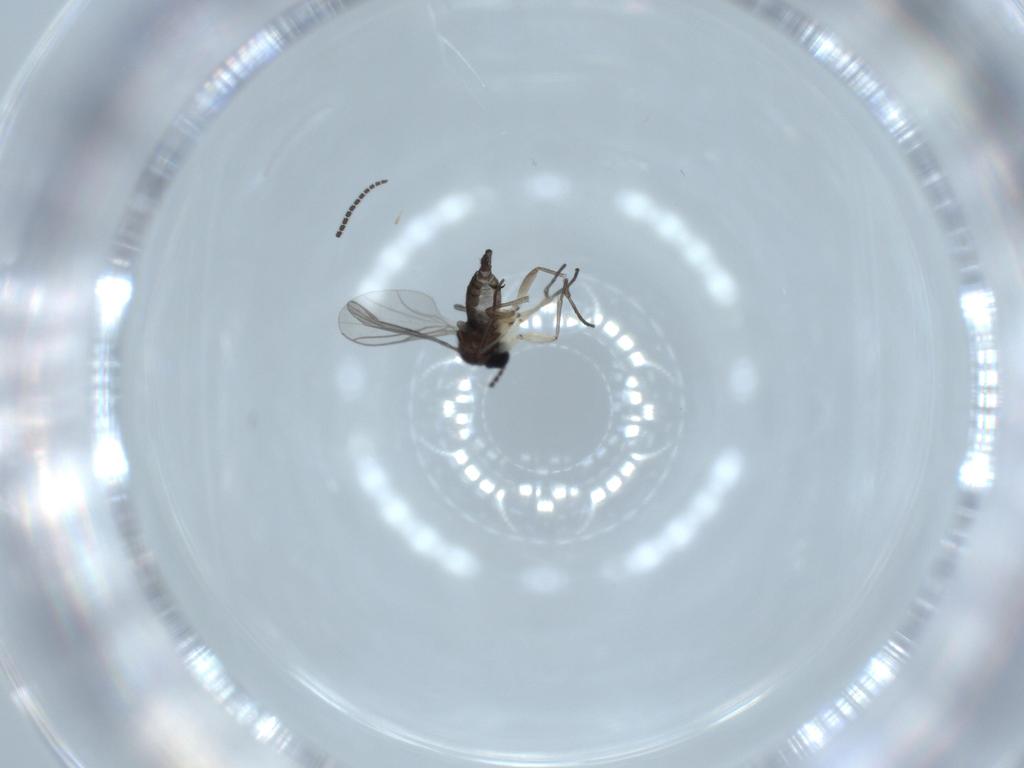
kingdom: Animalia
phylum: Arthropoda
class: Insecta
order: Diptera
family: Sciaridae
